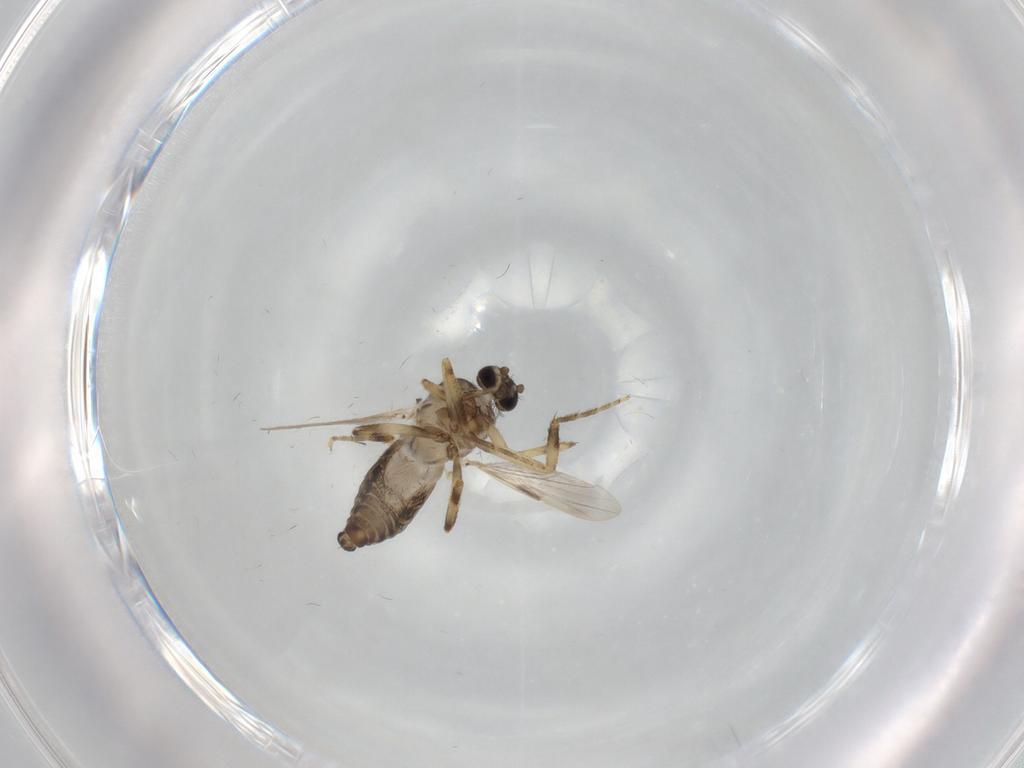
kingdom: Animalia
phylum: Arthropoda
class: Insecta
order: Diptera
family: Ceratopogonidae
